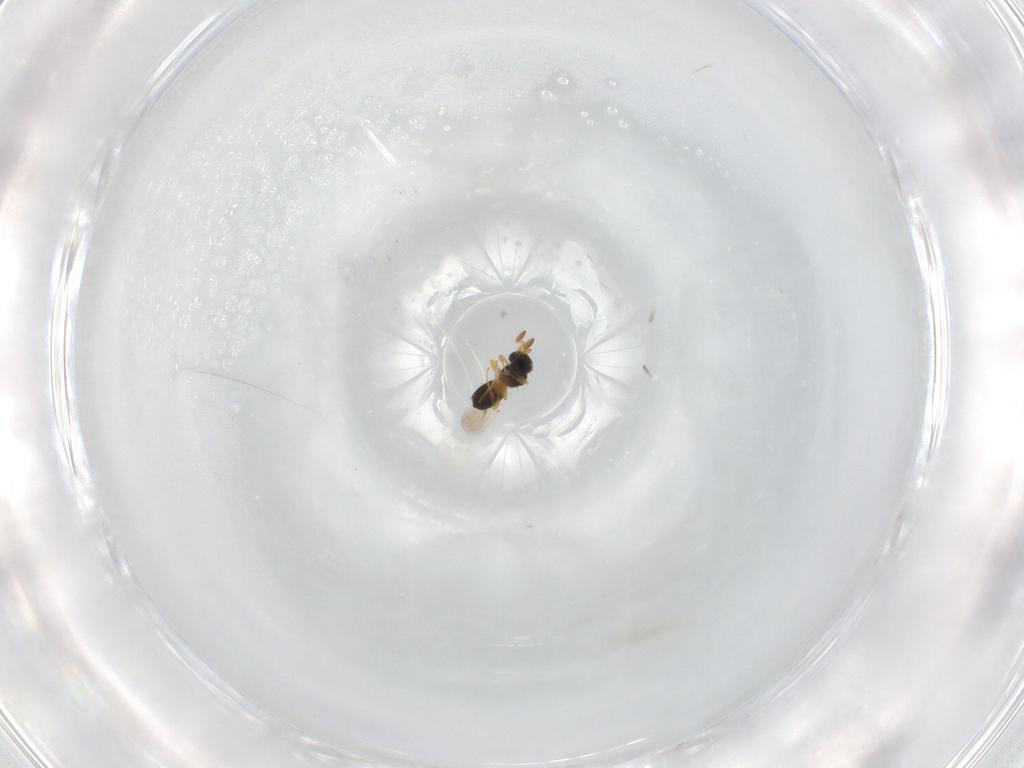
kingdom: Animalia
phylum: Arthropoda
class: Insecta
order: Hymenoptera
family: Platygastridae
